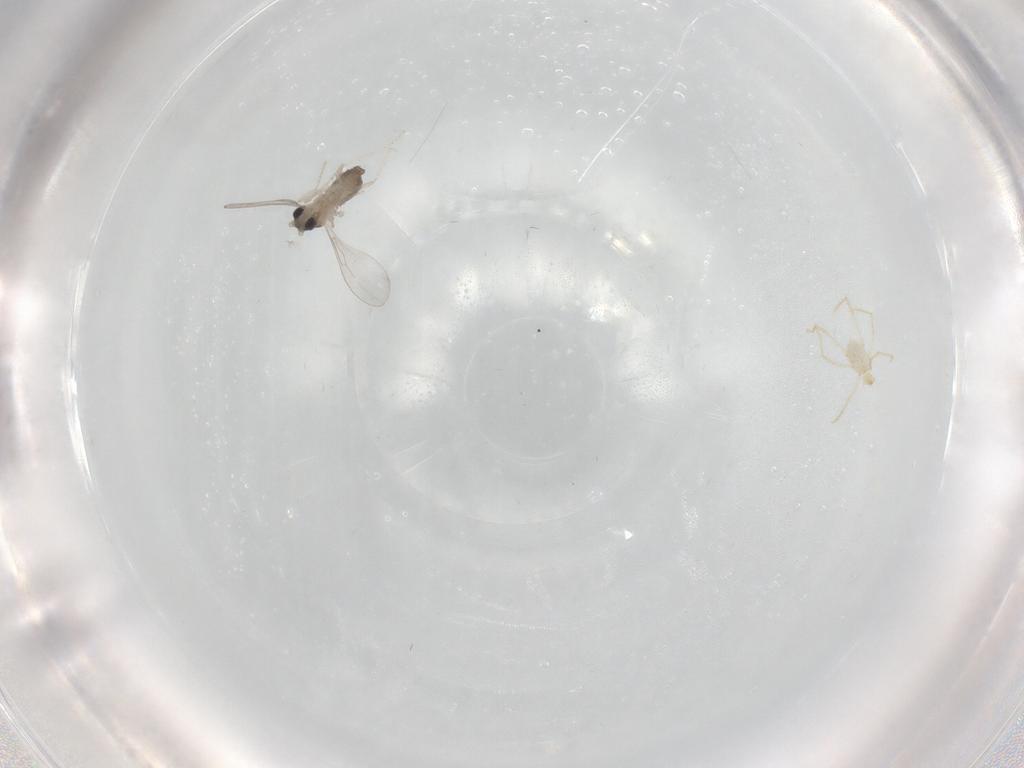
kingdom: Animalia
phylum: Arthropoda
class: Insecta
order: Diptera
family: Cecidomyiidae
